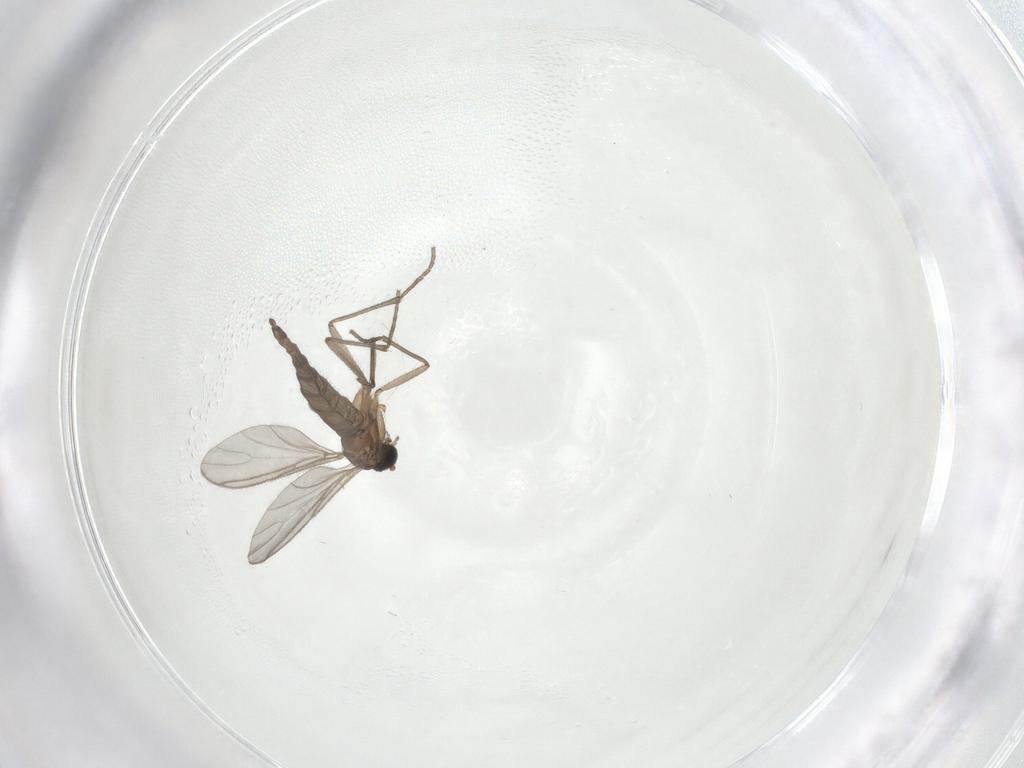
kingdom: Animalia
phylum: Arthropoda
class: Insecta
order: Diptera
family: Sciaridae
